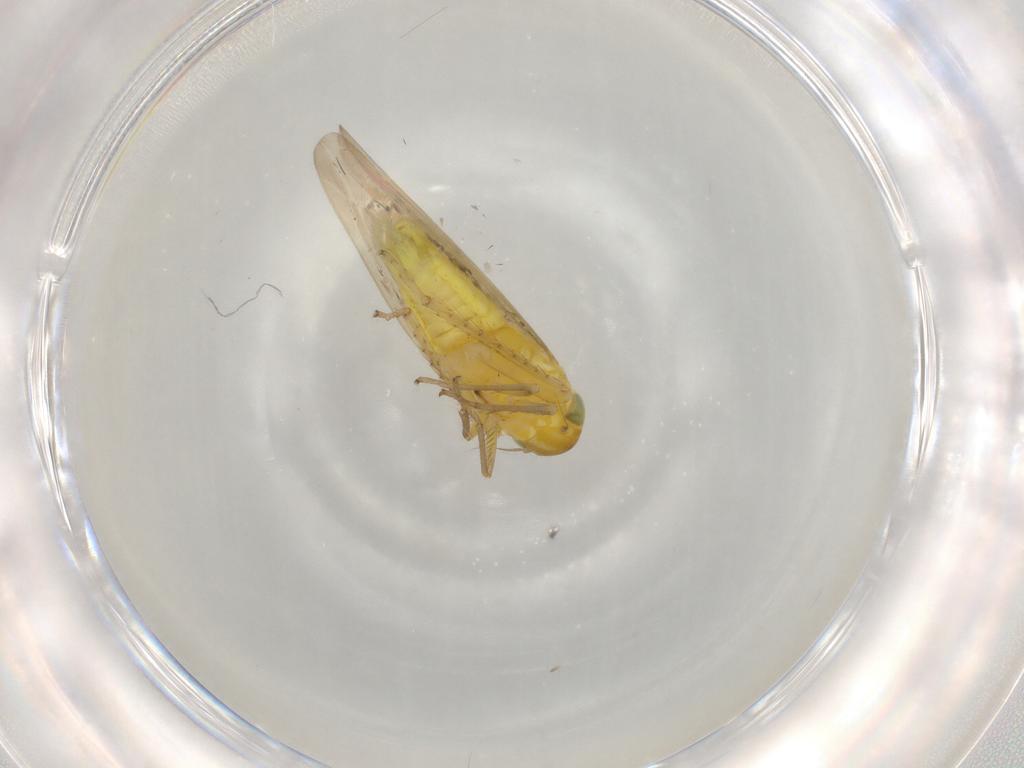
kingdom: Animalia
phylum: Arthropoda
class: Insecta
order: Hemiptera
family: Cicadellidae
